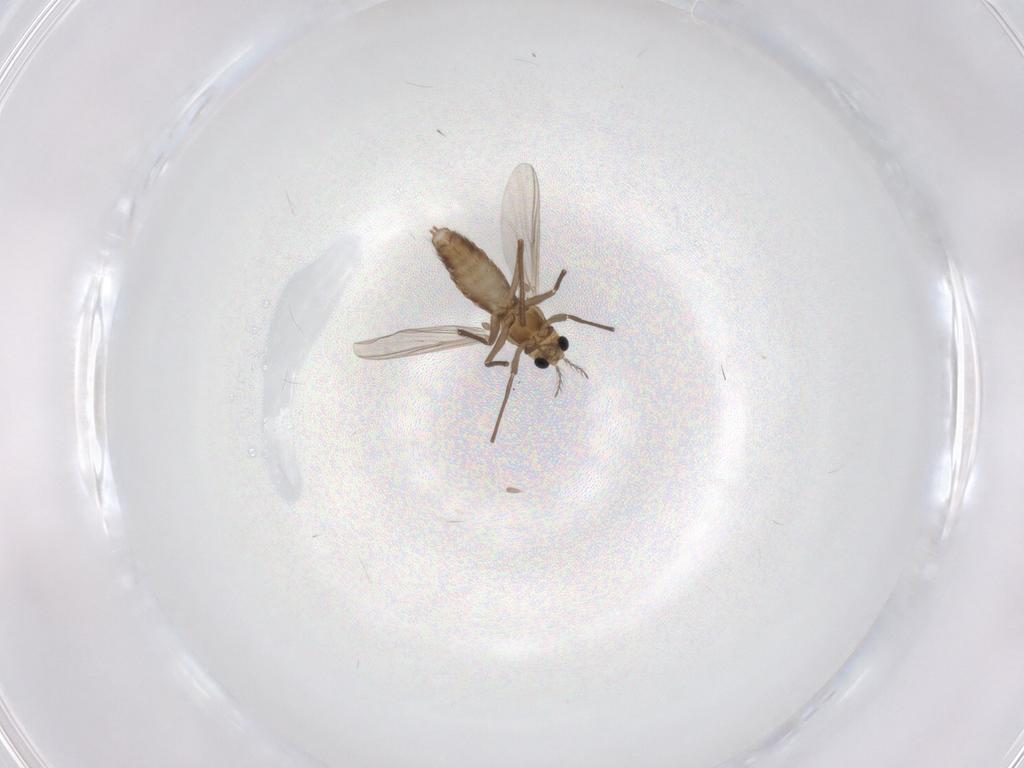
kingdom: Animalia
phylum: Arthropoda
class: Insecta
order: Diptera
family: Chironomidae
